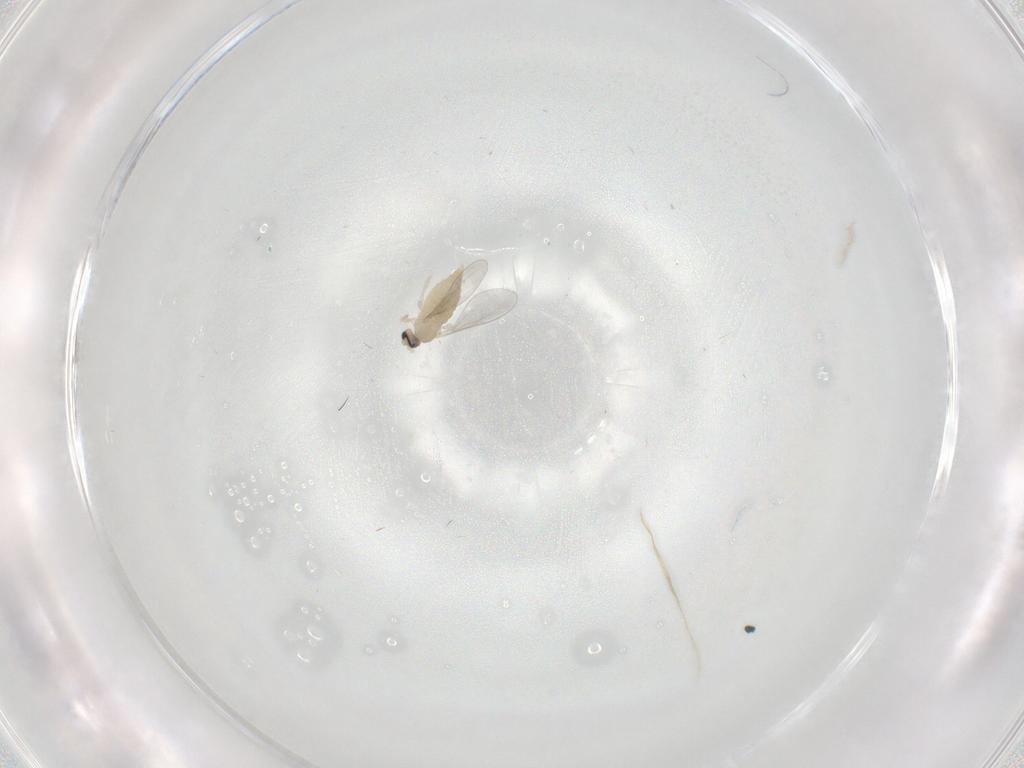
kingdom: Animalia
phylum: Arthropoda
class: Insecta
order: Diptera
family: Cecidomyiidae
